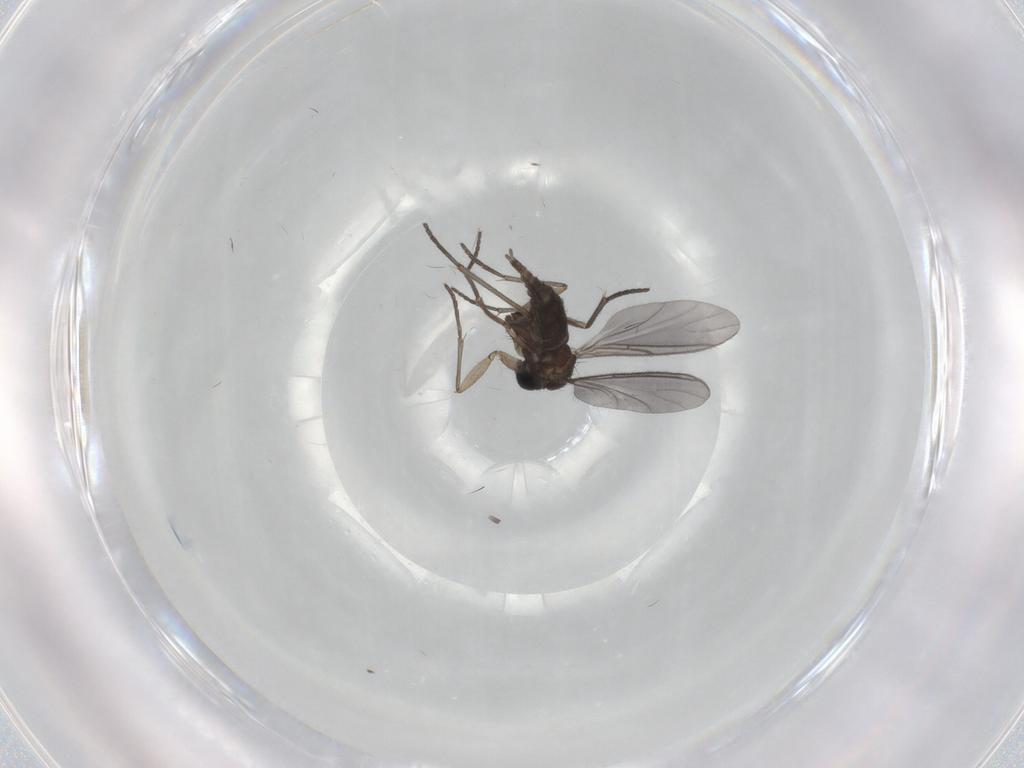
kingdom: Animalia
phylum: Arthropoda
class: Insecta
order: Diptera
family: Sciaridae
